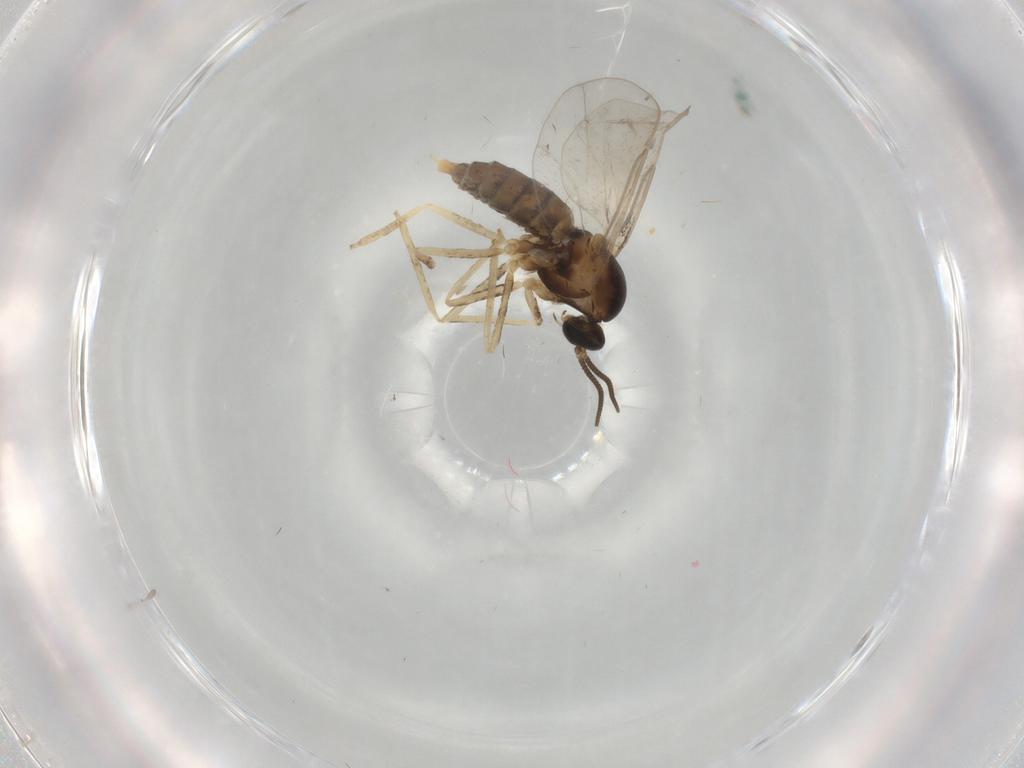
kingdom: Animalia
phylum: Arthropoda
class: Insecta
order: Diptera
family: Cecidomyiidae
